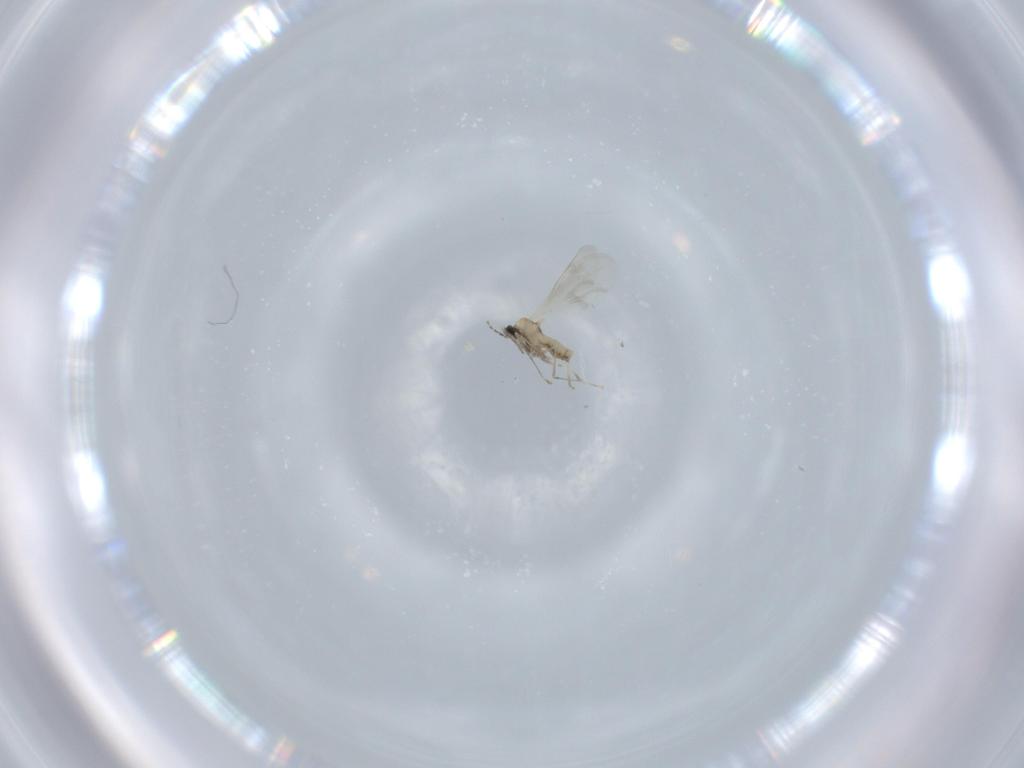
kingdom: Animalia
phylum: Arthropoda
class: Insecta
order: Diptera
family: Cecidomyiidae
